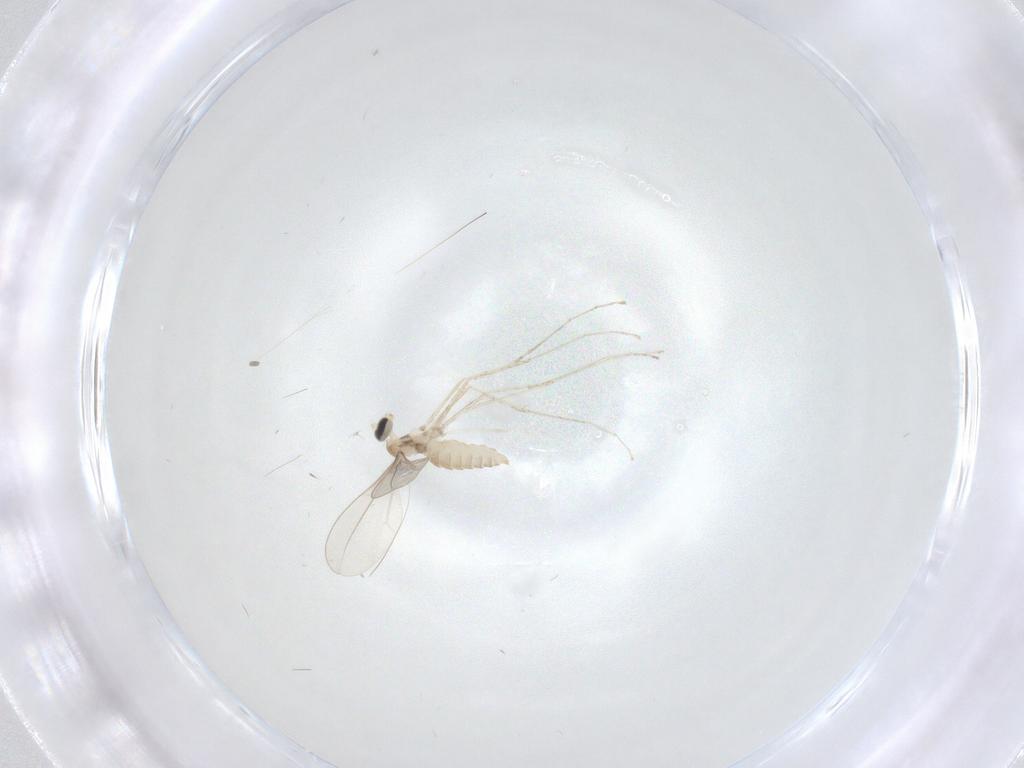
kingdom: Animalia
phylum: Arthropoda
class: Insecta
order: Diptera
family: Cecidomyiidae
